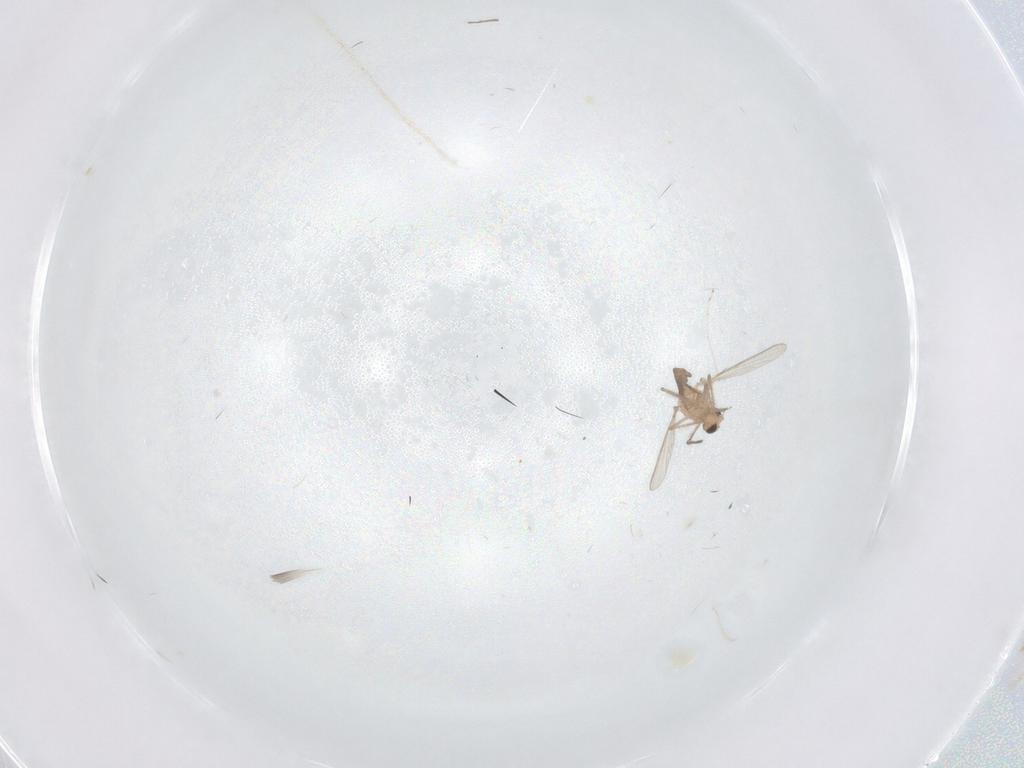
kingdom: Animalia
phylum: Arthropoda
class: Insecta
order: Diptera
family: Chironomidae
